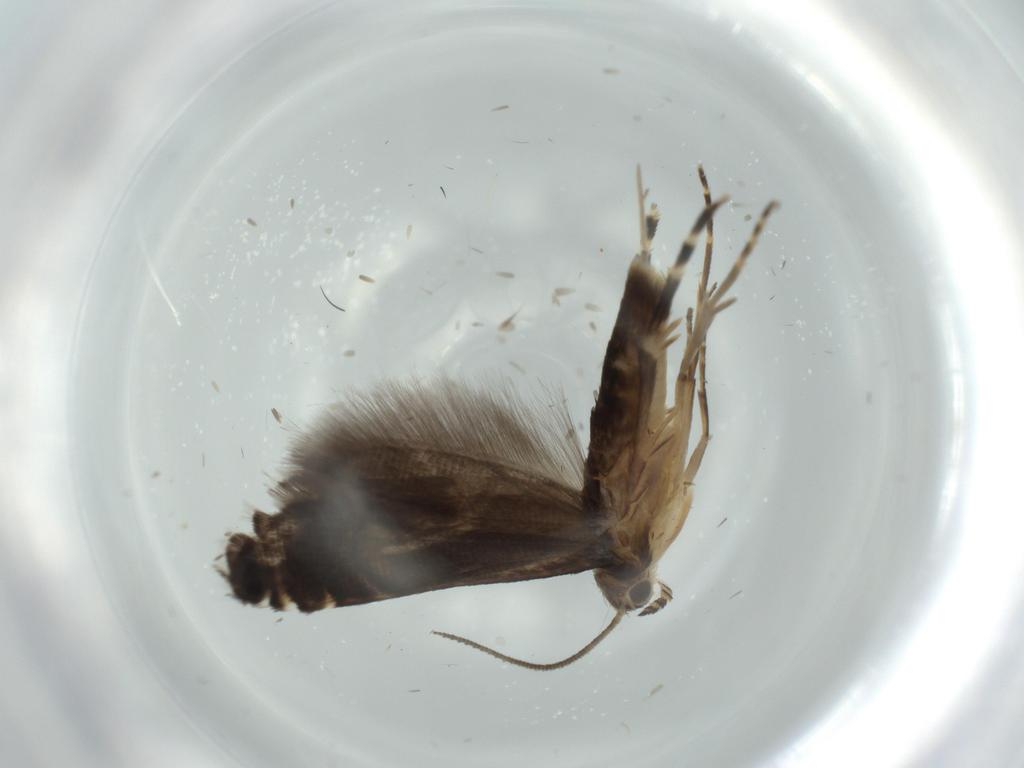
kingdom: Animalia
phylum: Arthropoda
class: Insecta
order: Lepidoptera
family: Glyphipterigidae
